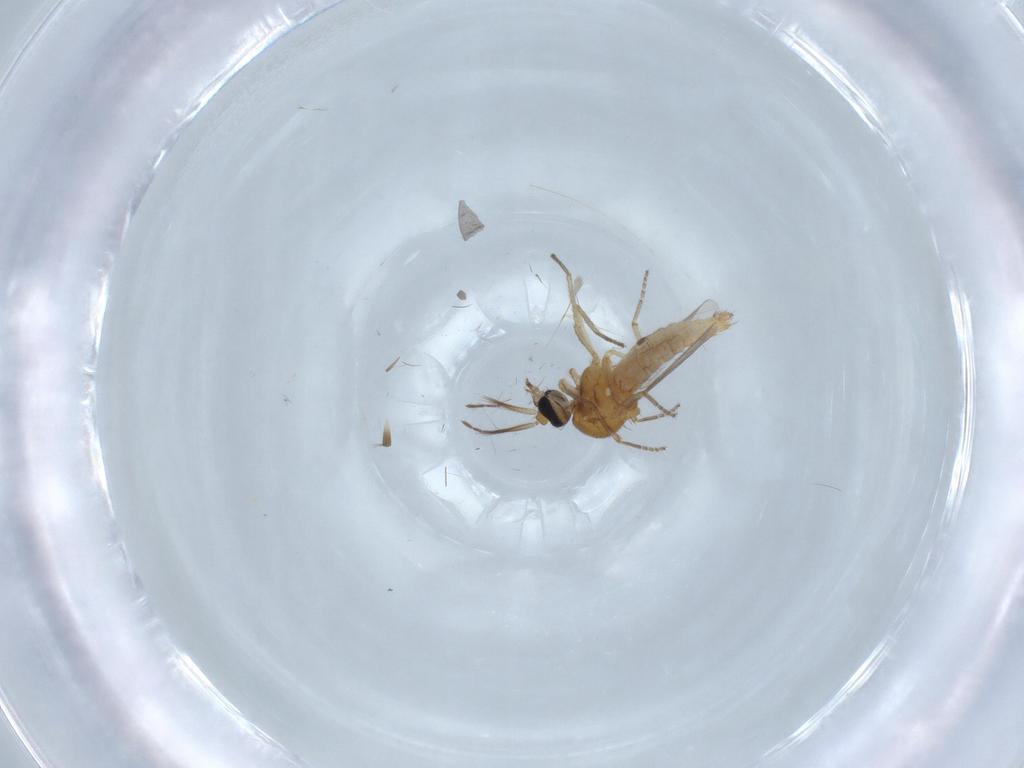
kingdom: Animalia
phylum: Arthropoda
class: Insecta
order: Diptera
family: Ceratopogonidae
